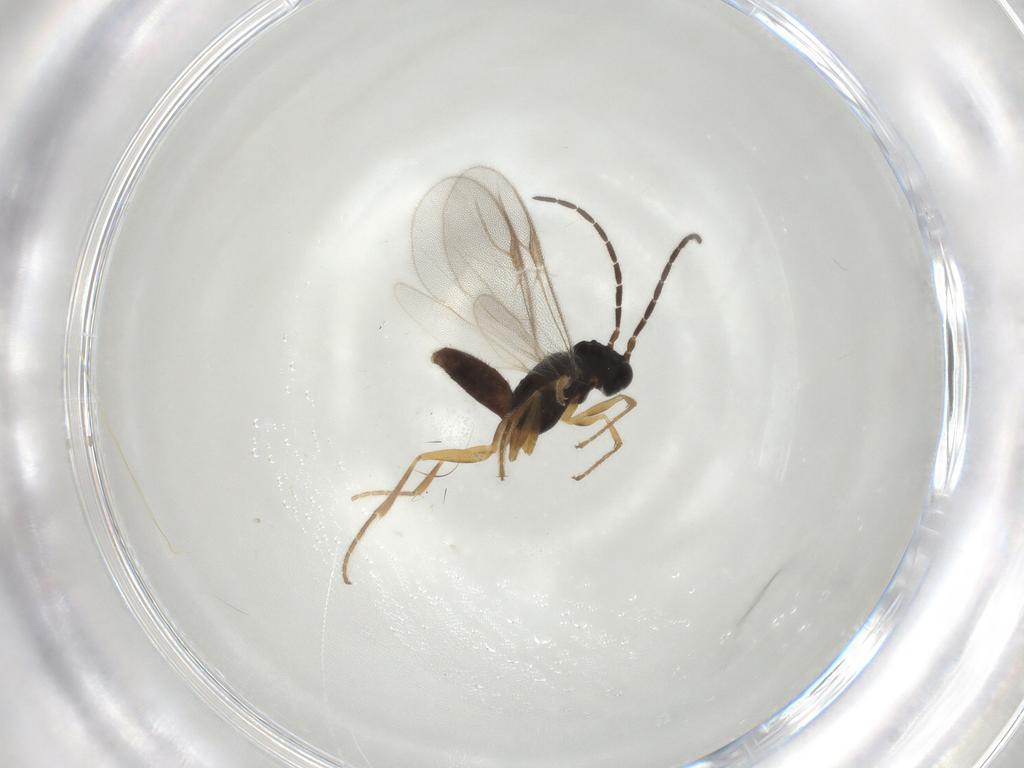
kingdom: Animalia
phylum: Arthropoda
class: Insecta
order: Hymenoptera
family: Dryinidae
